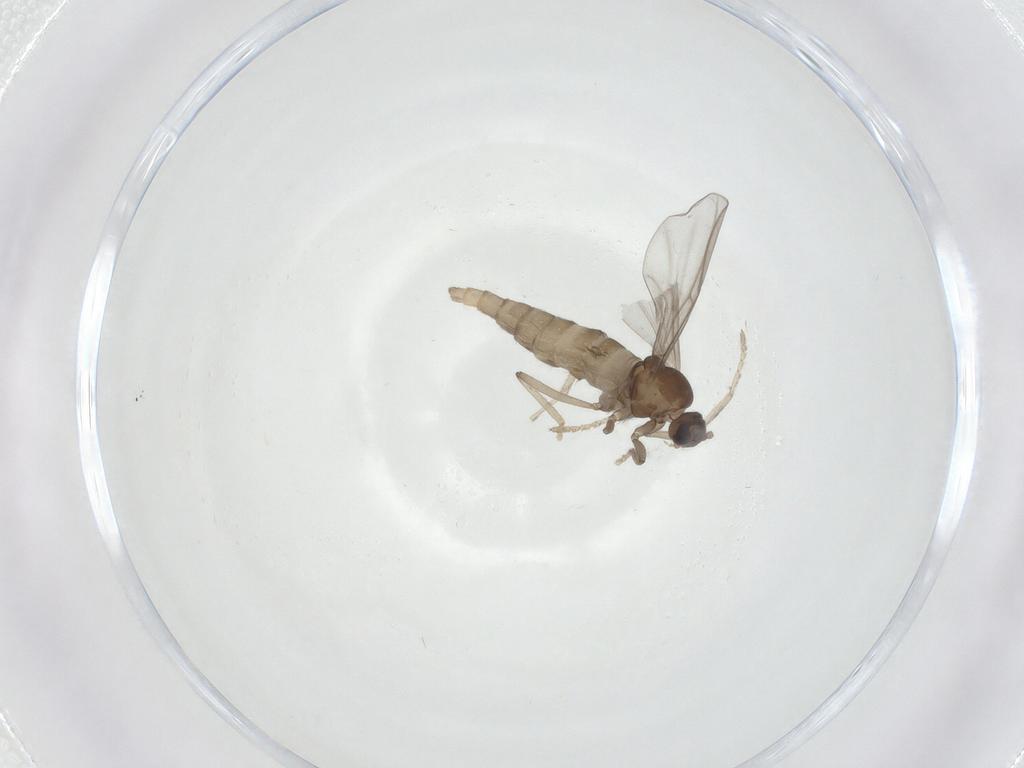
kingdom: Animalia
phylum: Arthropoda
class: Insecta
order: Diptera
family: Cecidomyiidae
